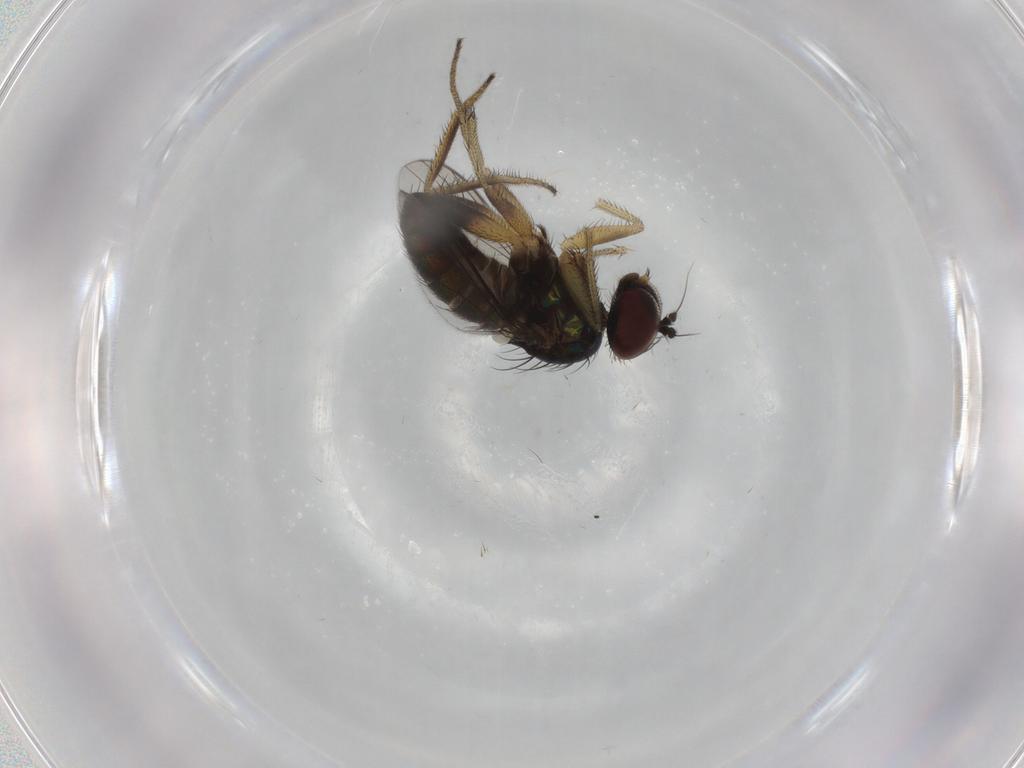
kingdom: Animalia
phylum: Arthropoda
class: Insecta
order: Diptera
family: Dolichopodidae
